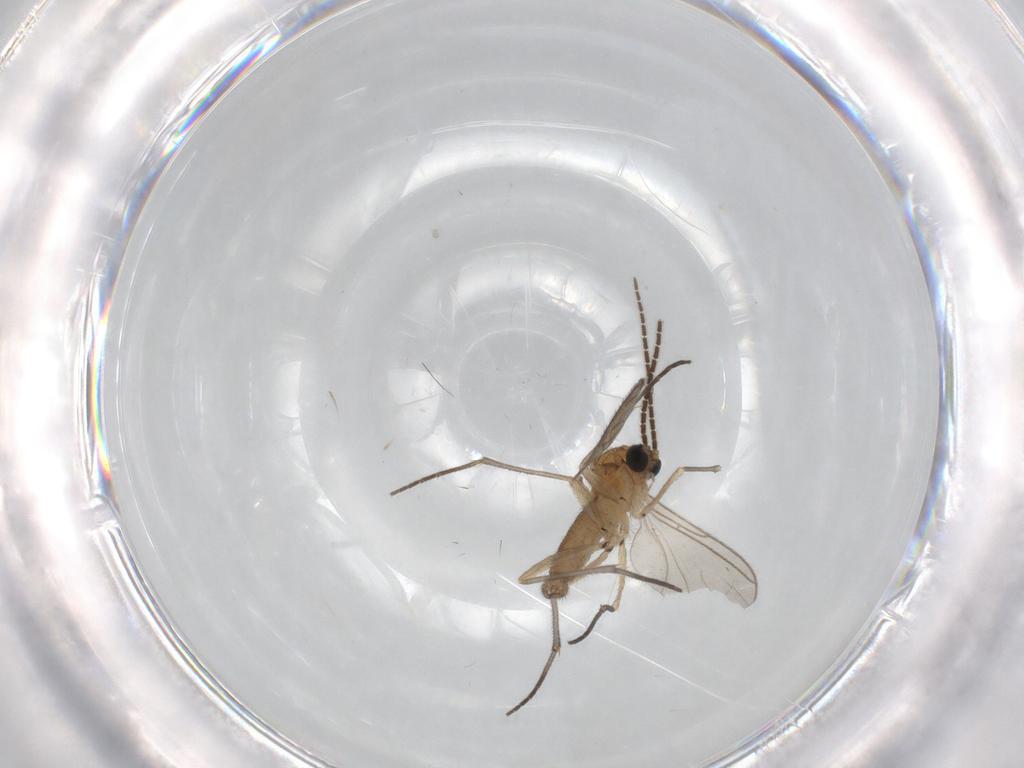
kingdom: Animalia
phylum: Arthropoda
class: Insecta
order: Diptera
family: Sciaridae
